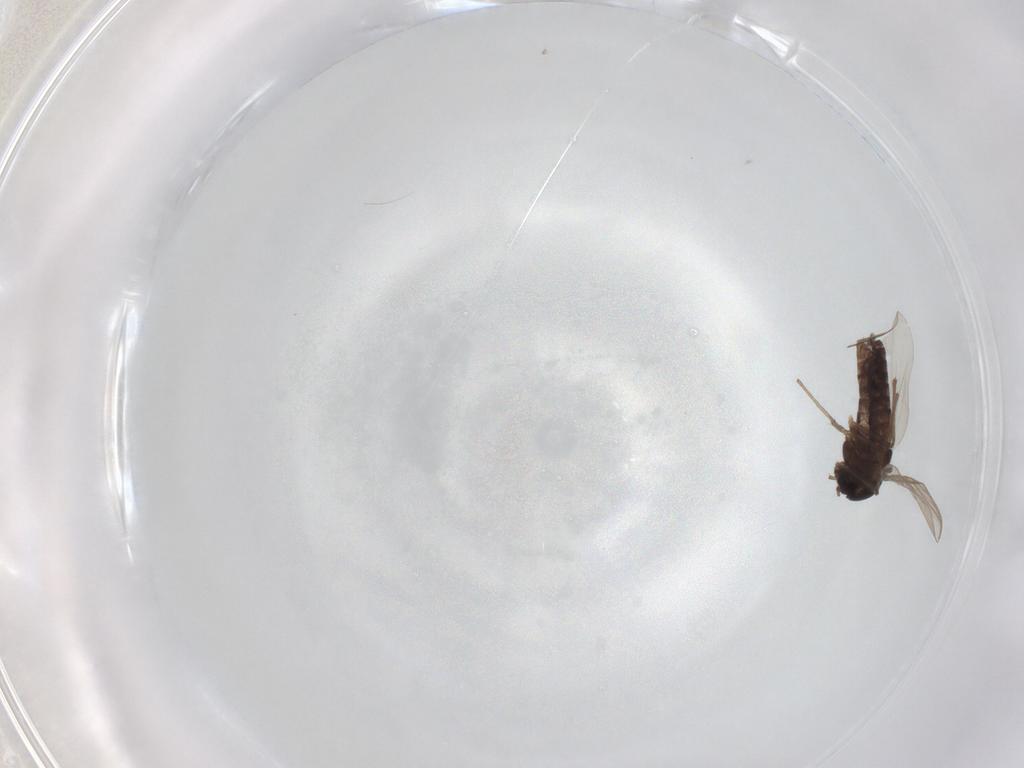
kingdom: Animalia
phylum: Arthropoda
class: Insecta
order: Diptera
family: Chironomidae
